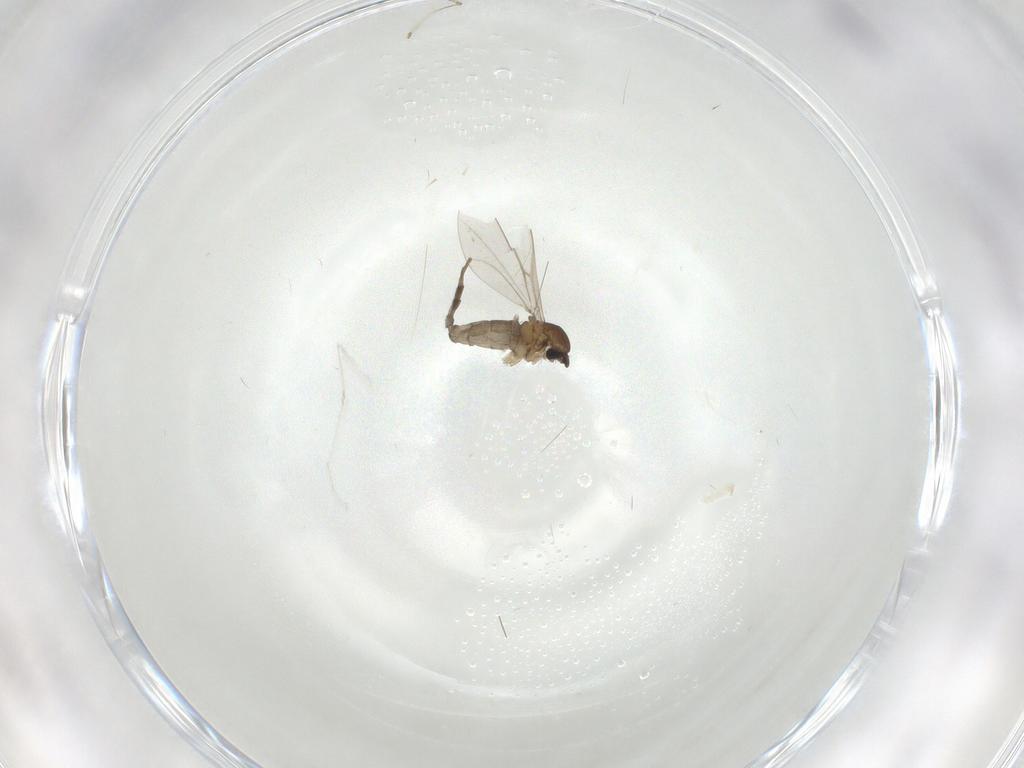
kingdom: Animalia
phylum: Arthropoda
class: Insecta
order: Diptera
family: Cecidomyiidae
